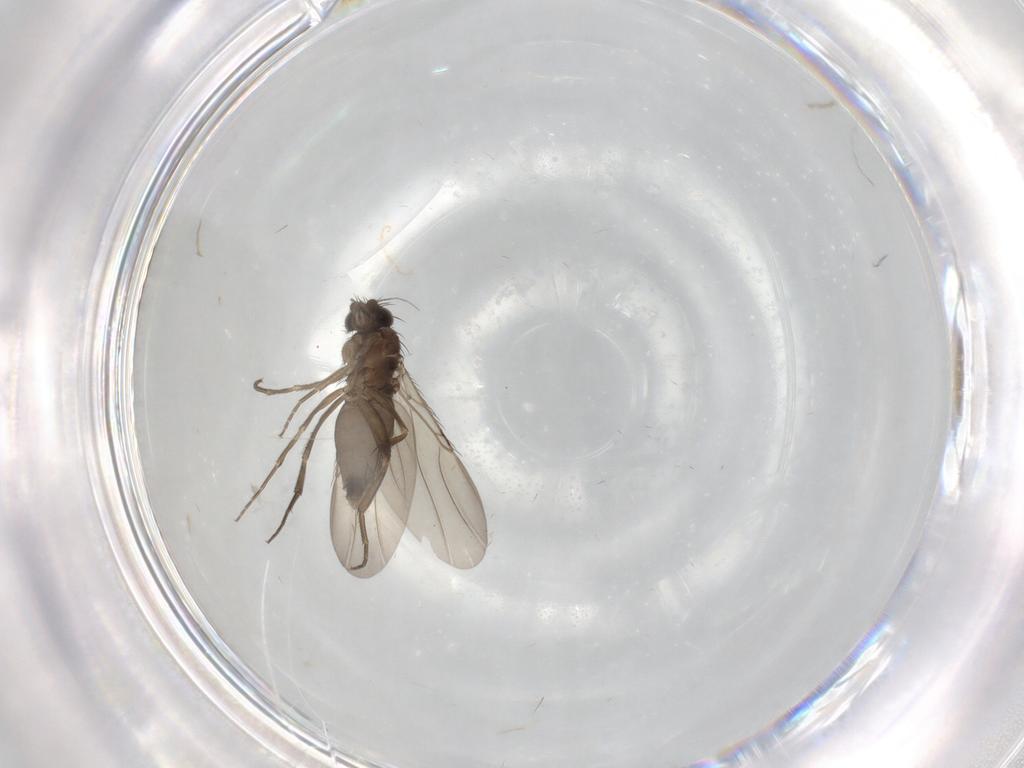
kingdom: Animalia
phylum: Arthropoda
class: Insecta
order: Diptera
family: Phoridae
